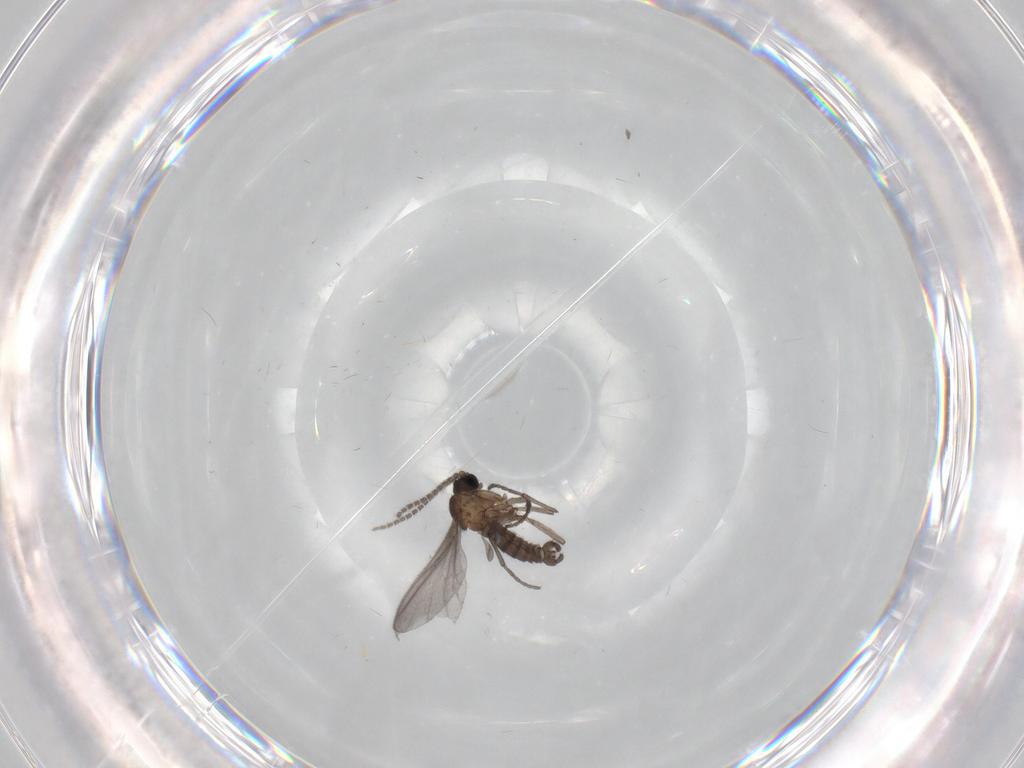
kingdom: Animalia
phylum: Arthropoda
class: Insecta
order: Diptera
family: Sciaridae
